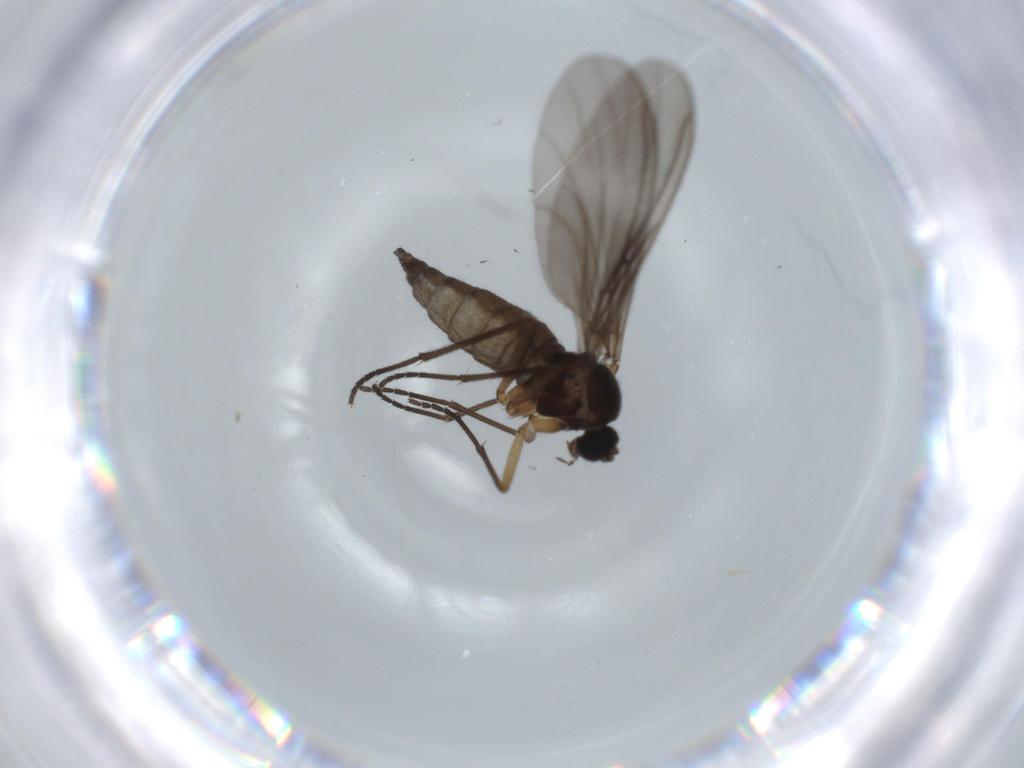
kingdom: Animalia
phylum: Arthropoda
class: Insecta
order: Diptera
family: Sciaridae
